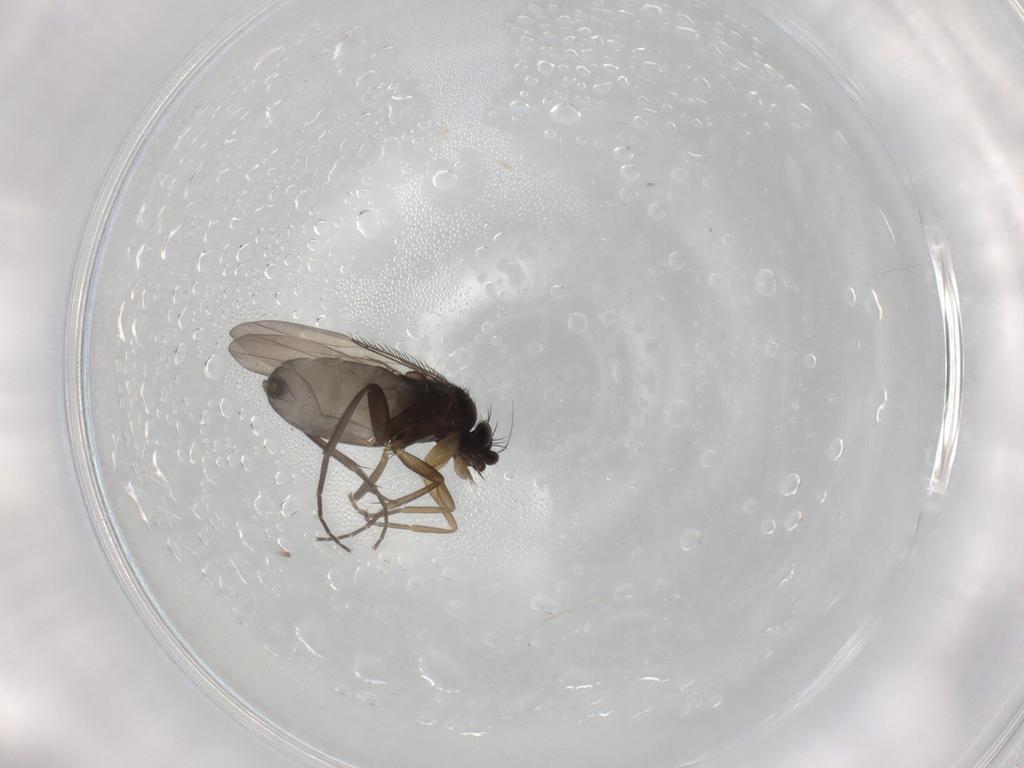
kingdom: Animalia
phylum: Arthropoda
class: Insecta
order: Diptera
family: Phoridae
